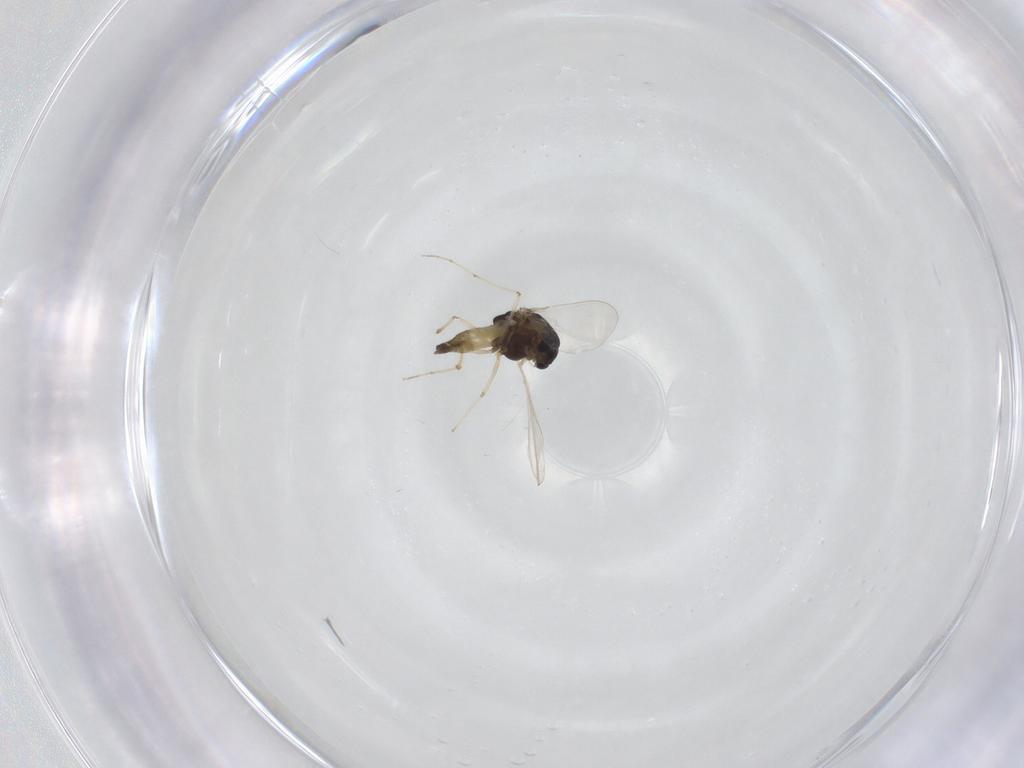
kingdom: Animalia
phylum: Arthropoda
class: Insecta
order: Diptera
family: Chironomidae
